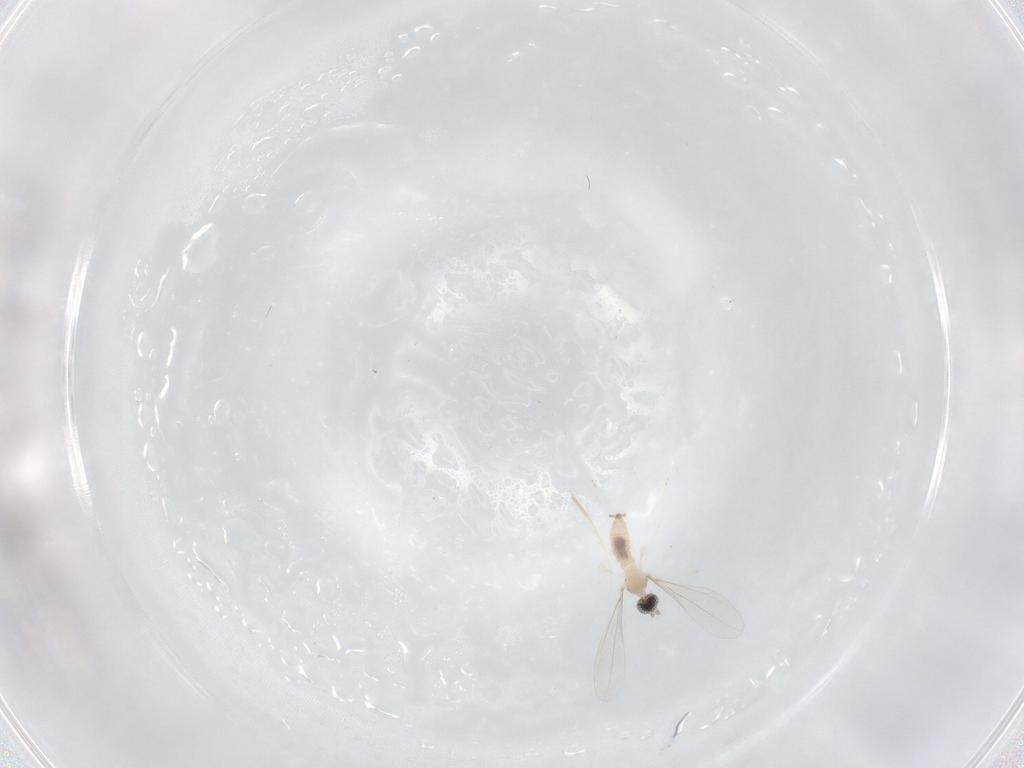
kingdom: Animalia
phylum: Arthropoda
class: Insecta
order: Diptera
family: Cecidomyiidae
